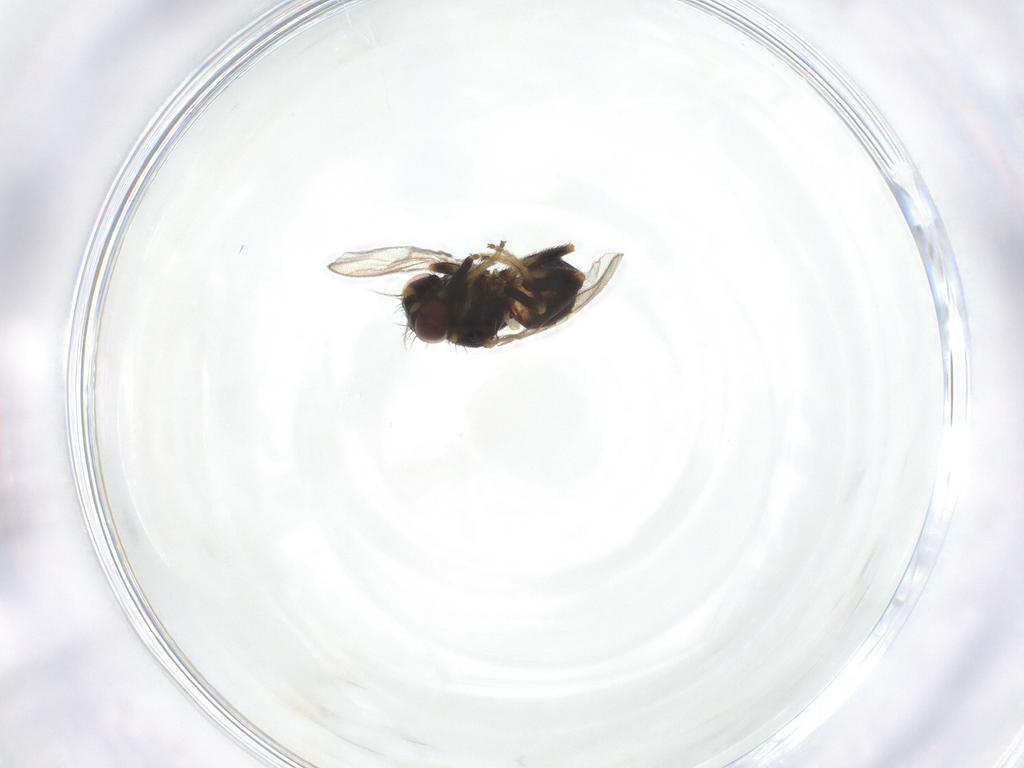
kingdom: Animalia
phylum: Arthropoda
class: Insecta
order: Diptera
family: Chloropidae
